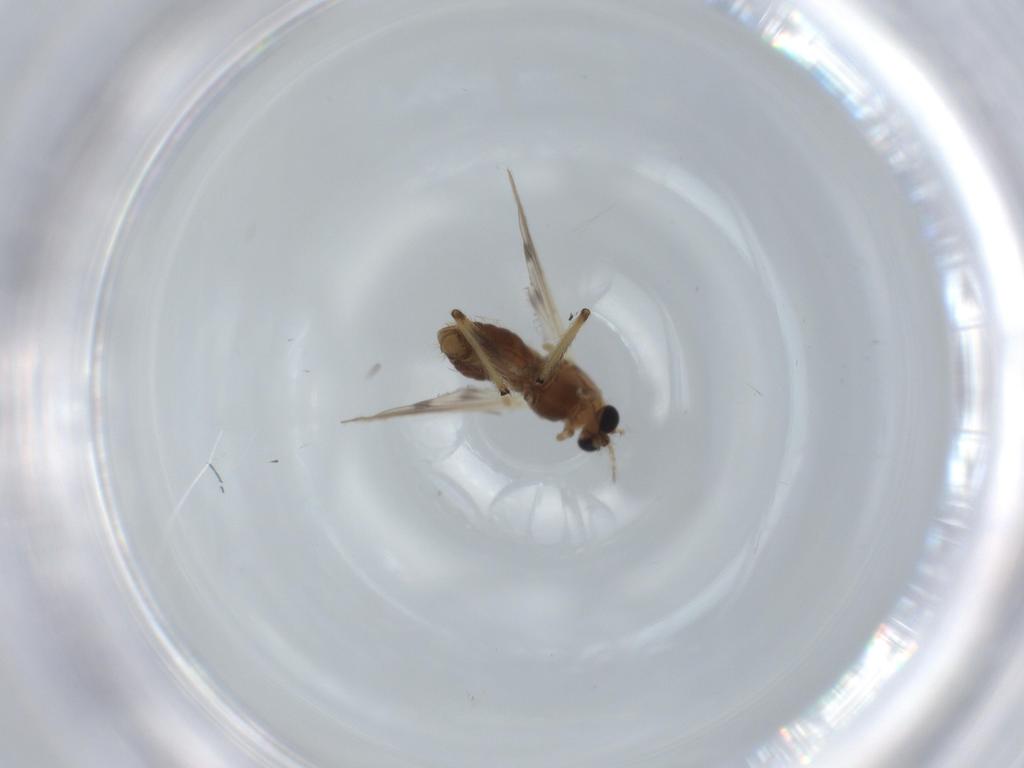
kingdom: Animalia
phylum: Arthropoda
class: Insecta
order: Diptera
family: Chironomidae
